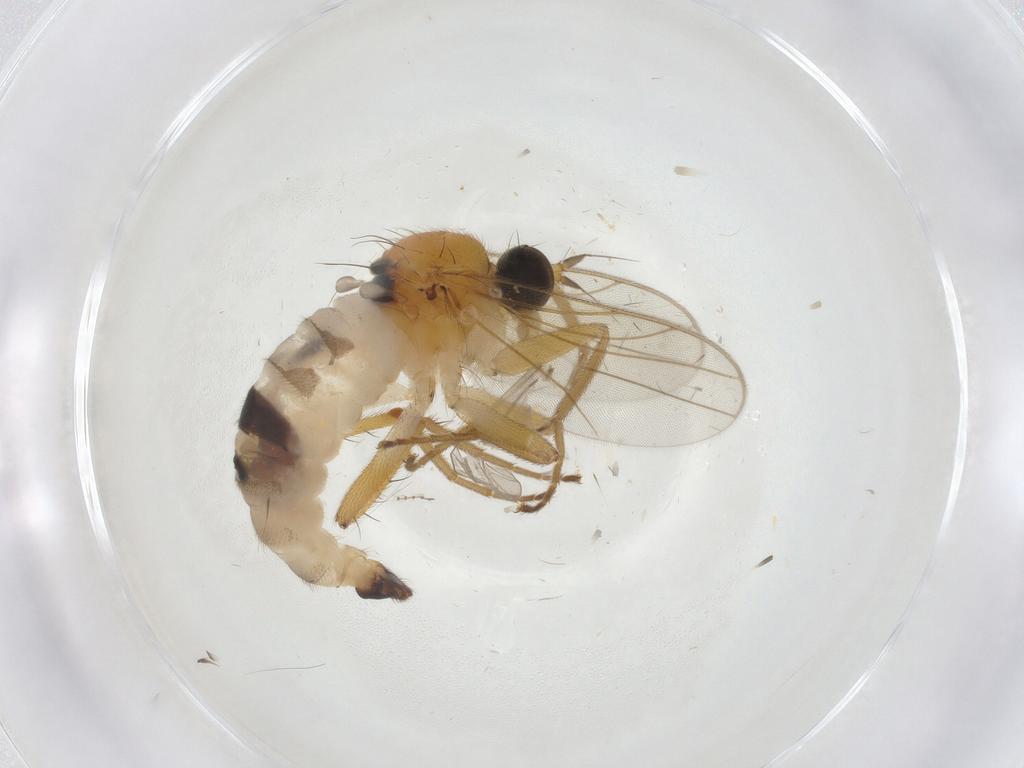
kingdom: Animalia
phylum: Arthropoda
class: Insecta
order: Diptera
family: Hybotidae
